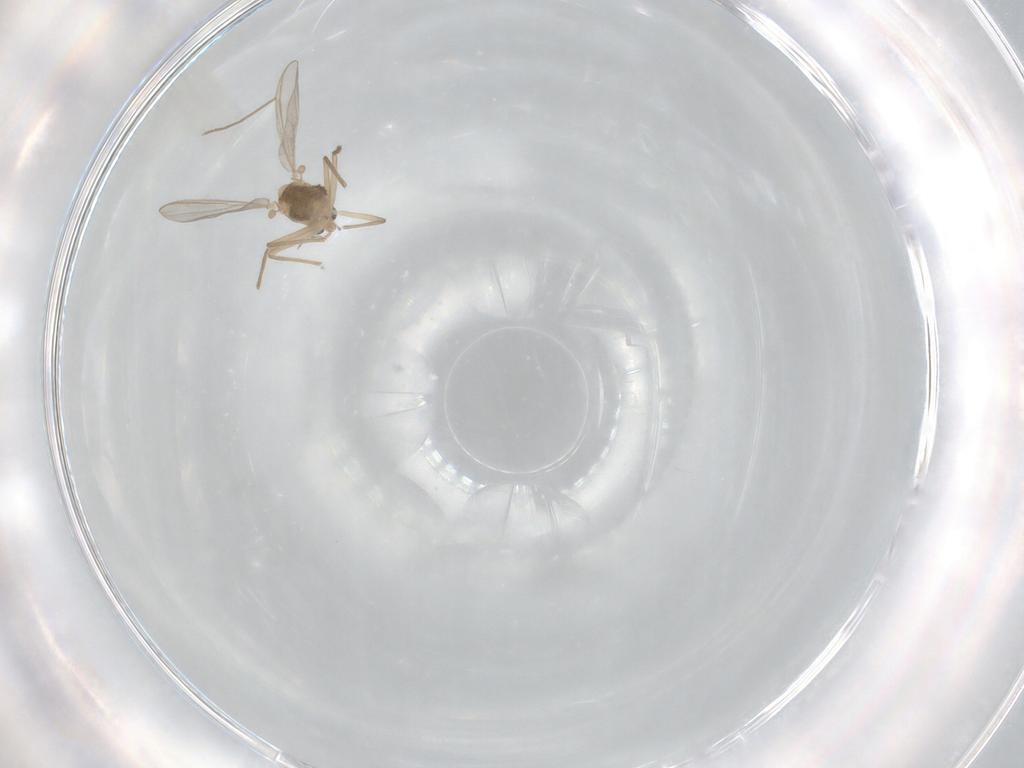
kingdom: Animalia
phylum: Arthropoda
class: Insecta
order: Diptera
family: Chironomidae
